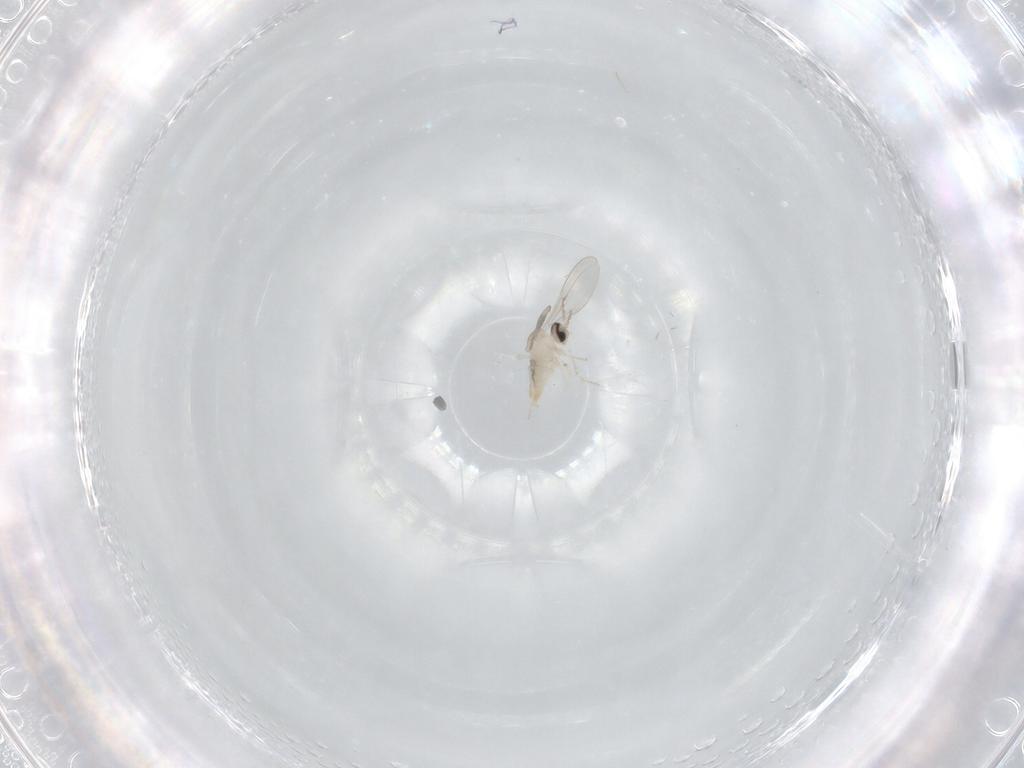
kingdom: Animalia
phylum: Arthropoda
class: Insecta
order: Diptera
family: Cecidomyiidae
